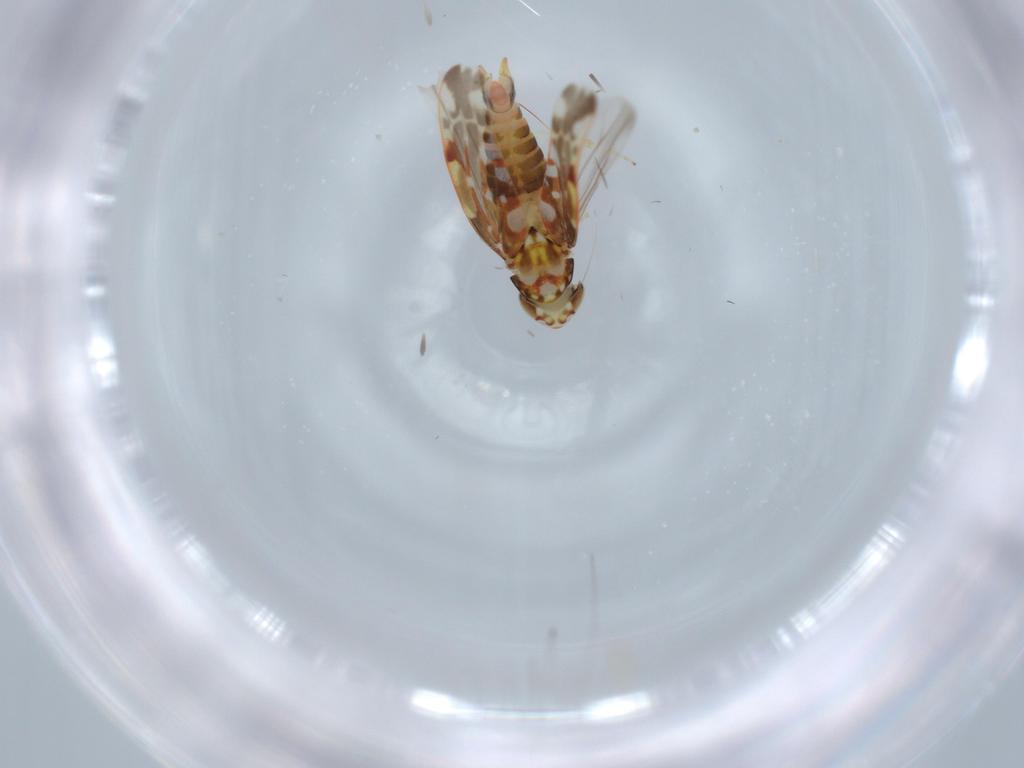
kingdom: Animalia
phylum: Arthropoda
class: Insecta
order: Hemiptera
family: Cicadellidae
